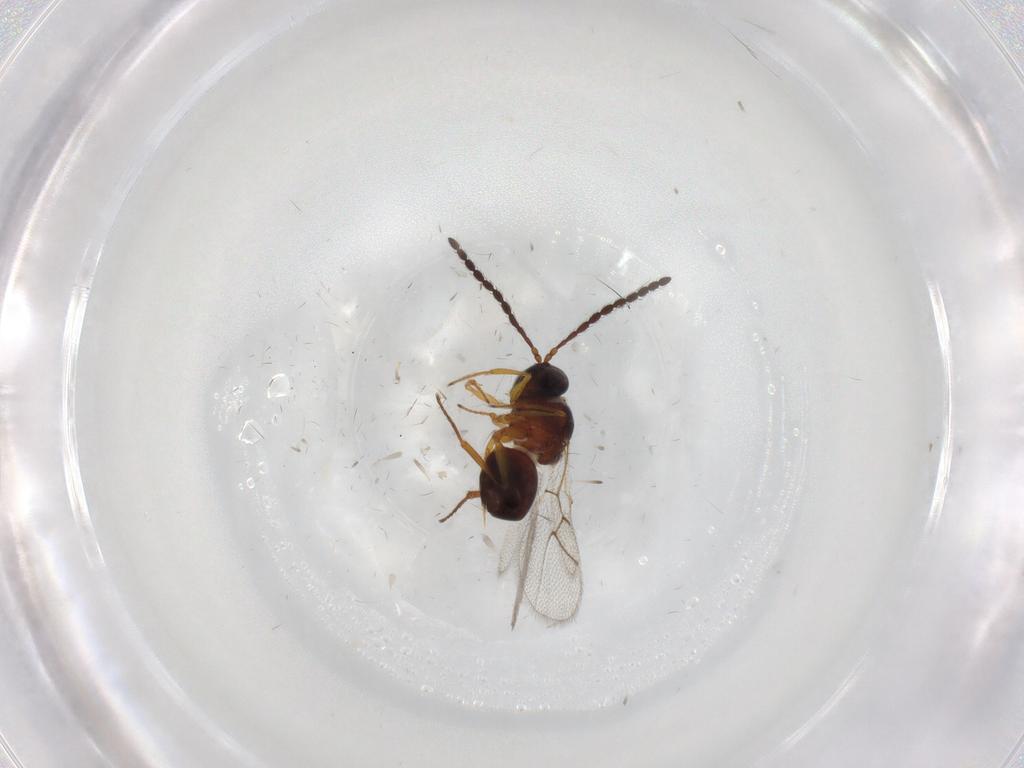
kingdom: Animalia
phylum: Arthropoda
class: Insecta
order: Hymenoptera
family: Figitidae
